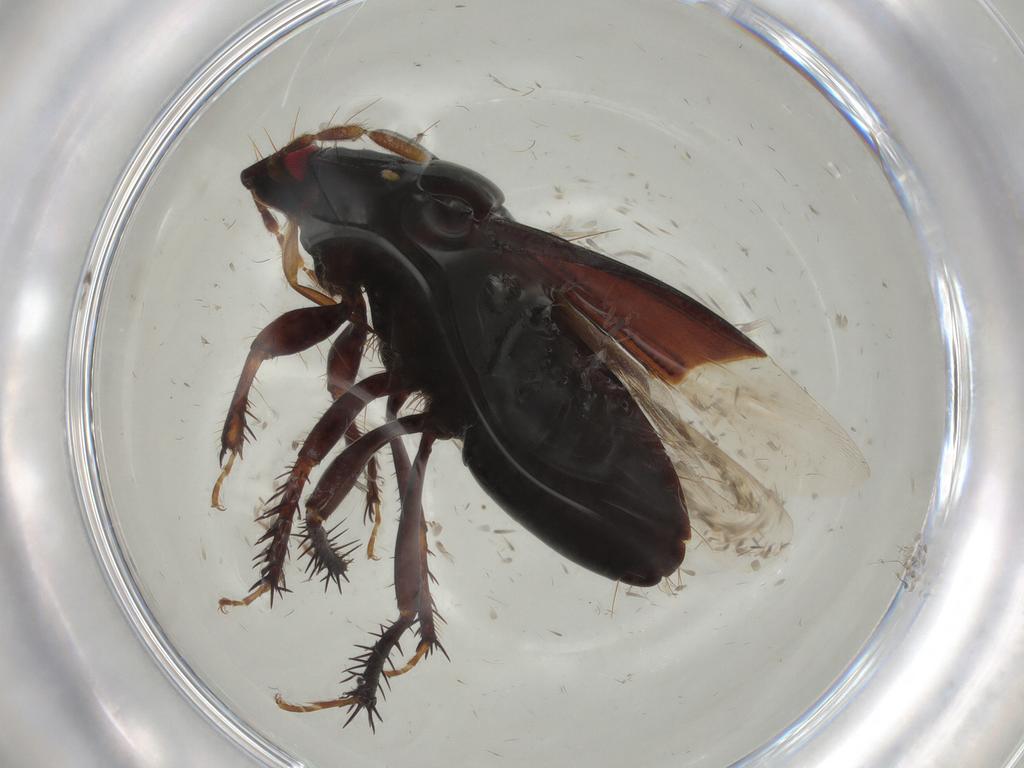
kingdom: Animalia
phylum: Arthropoda
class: Insecta
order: Hemiptera
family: Cydnidae
